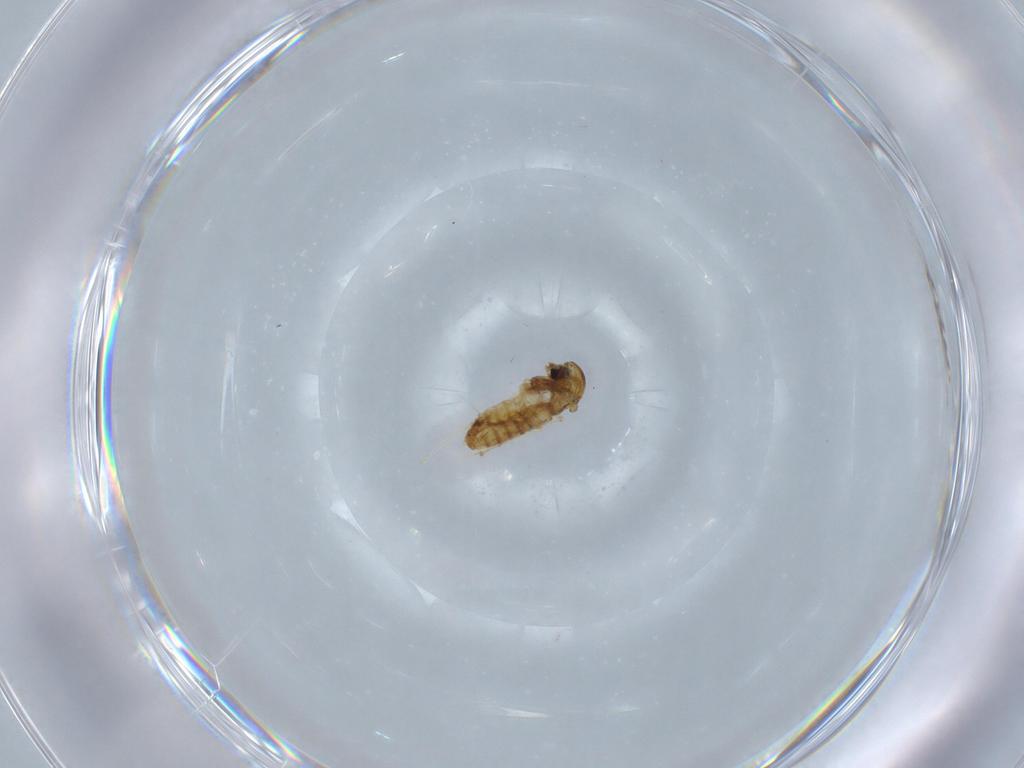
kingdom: Animalia
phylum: Arthropoda
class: Insecta
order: Diptera
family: Chironomidae
